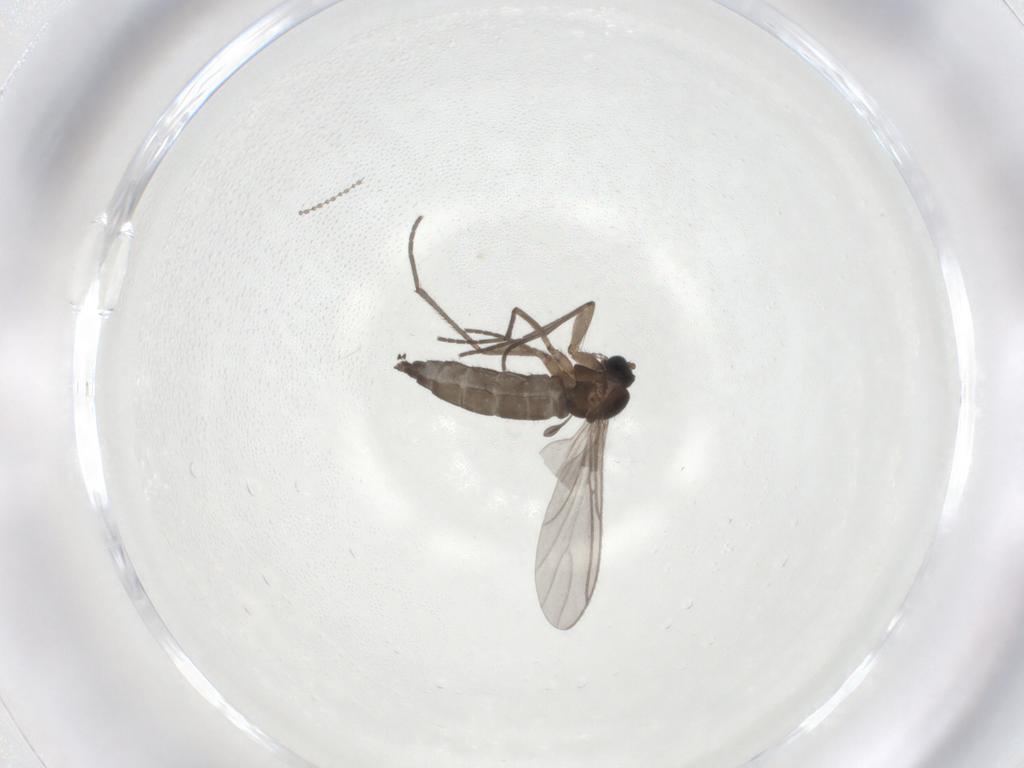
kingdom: Animalia
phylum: Arthropoda
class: Insecta
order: Diptera
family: Sciaridae
